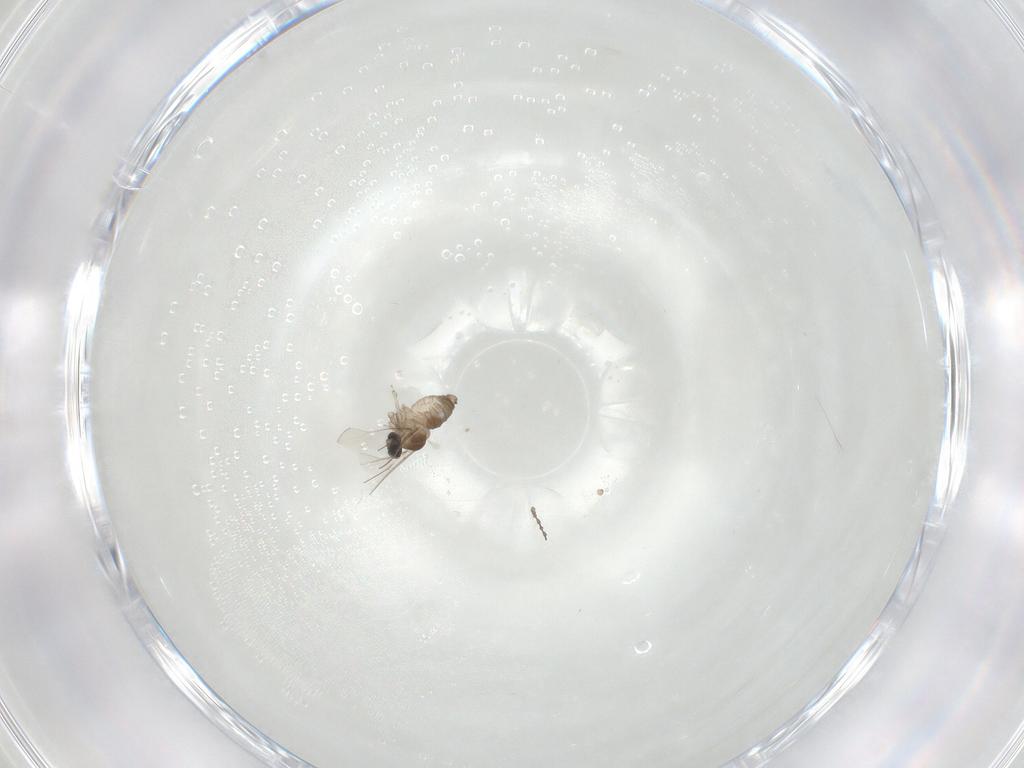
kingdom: Animalia
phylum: Arthropoda
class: Insecta
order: Diptera
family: Cecidomyiidae
